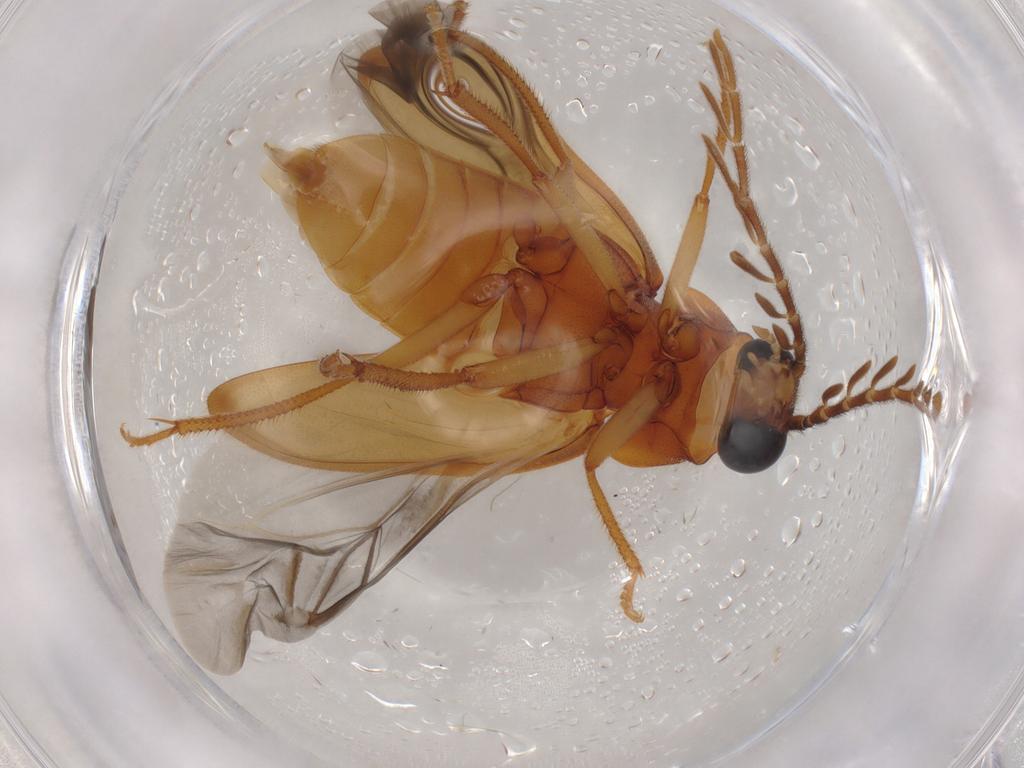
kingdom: Animalia
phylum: Arthropoda
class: Insecta
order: Coleoptera
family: Ptilodactylidae
